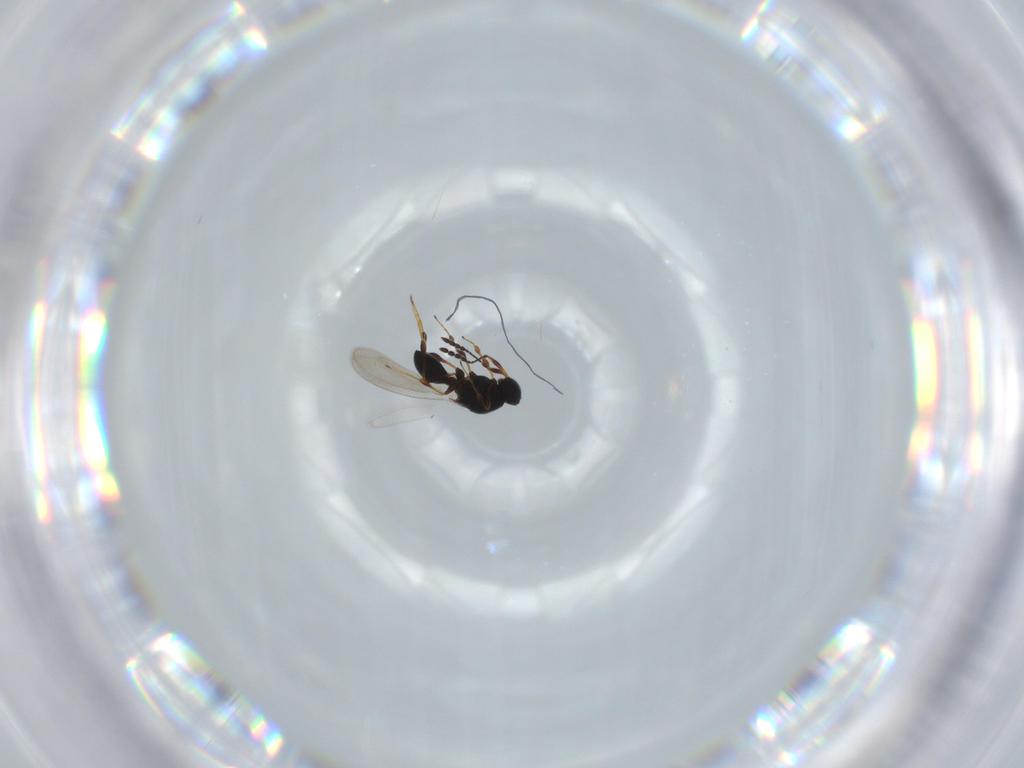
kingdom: Animalia
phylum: Arthropoda
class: Insecta
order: Hymenoptera
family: Platygastridae
